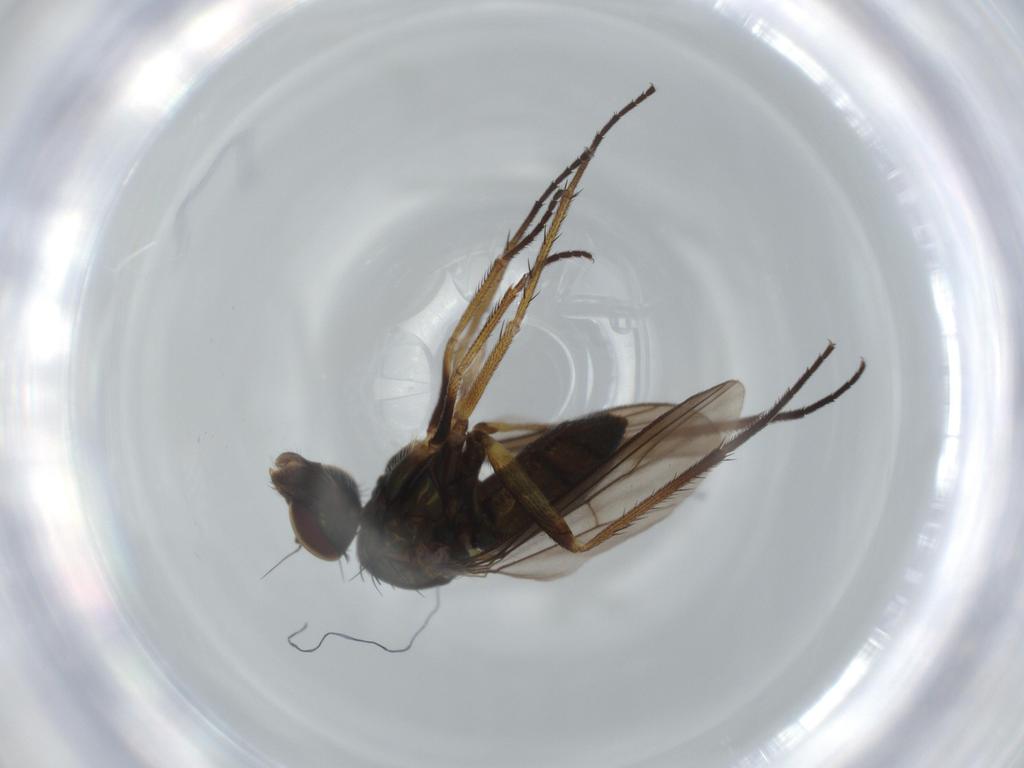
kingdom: Animalia
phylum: Arthropoda
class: Insecta
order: Diptera
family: Dolichopodidae
